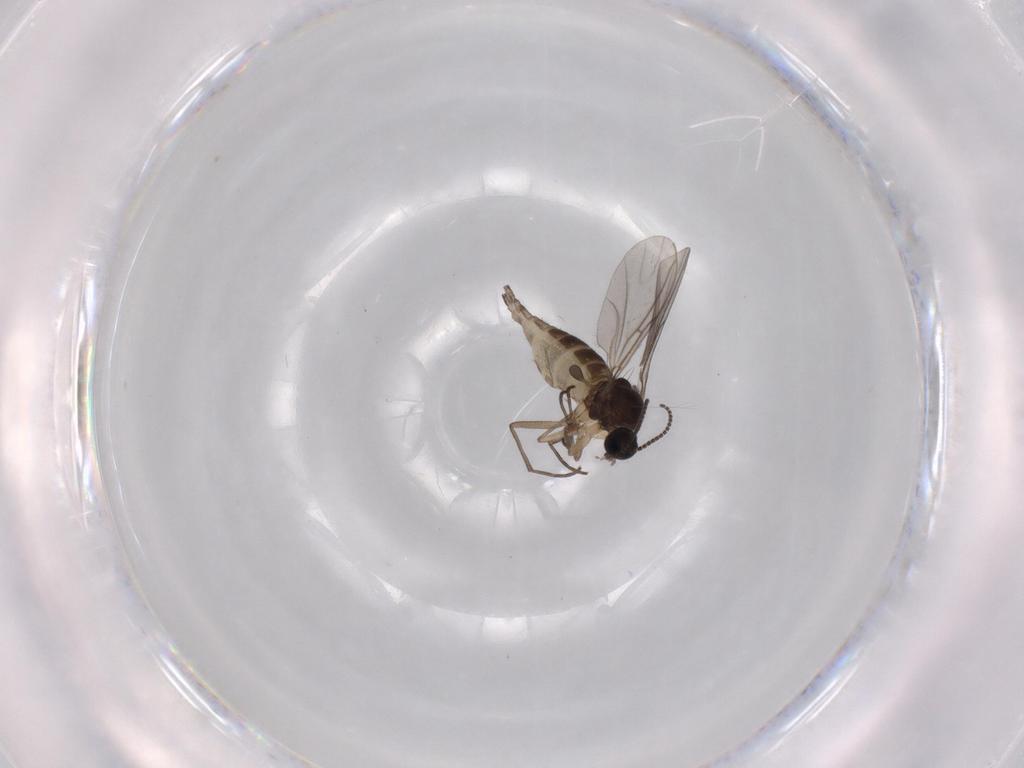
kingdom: Animalia
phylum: Arthropoda
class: Insecta
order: Diptera
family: Sciaridae
